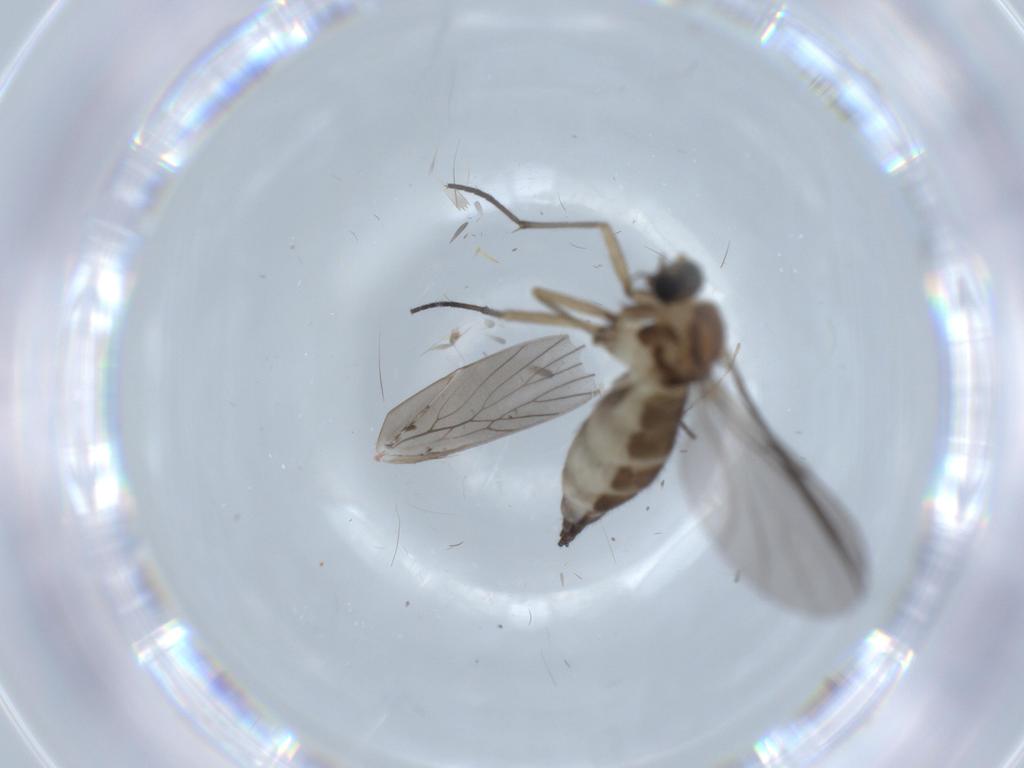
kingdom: Animalia
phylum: Arthropoda
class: Insecta
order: Diptera
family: Sciaridae
